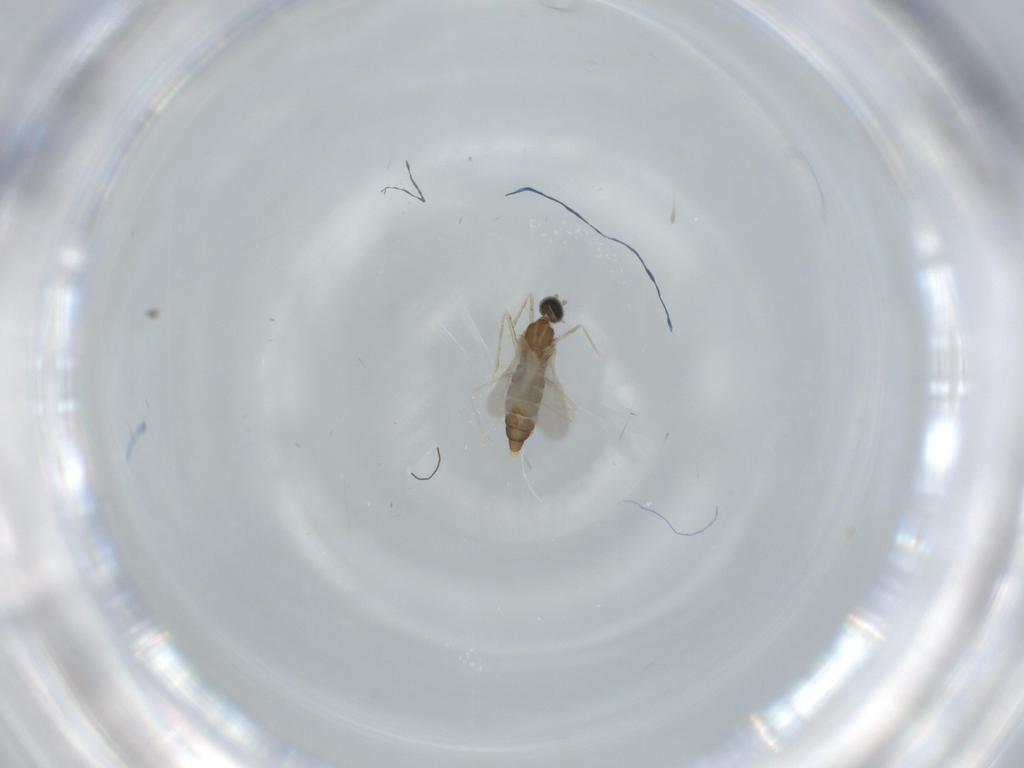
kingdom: Animalia
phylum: Arthropoda
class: Insecta
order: Diptera
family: Cecidomyiidae
